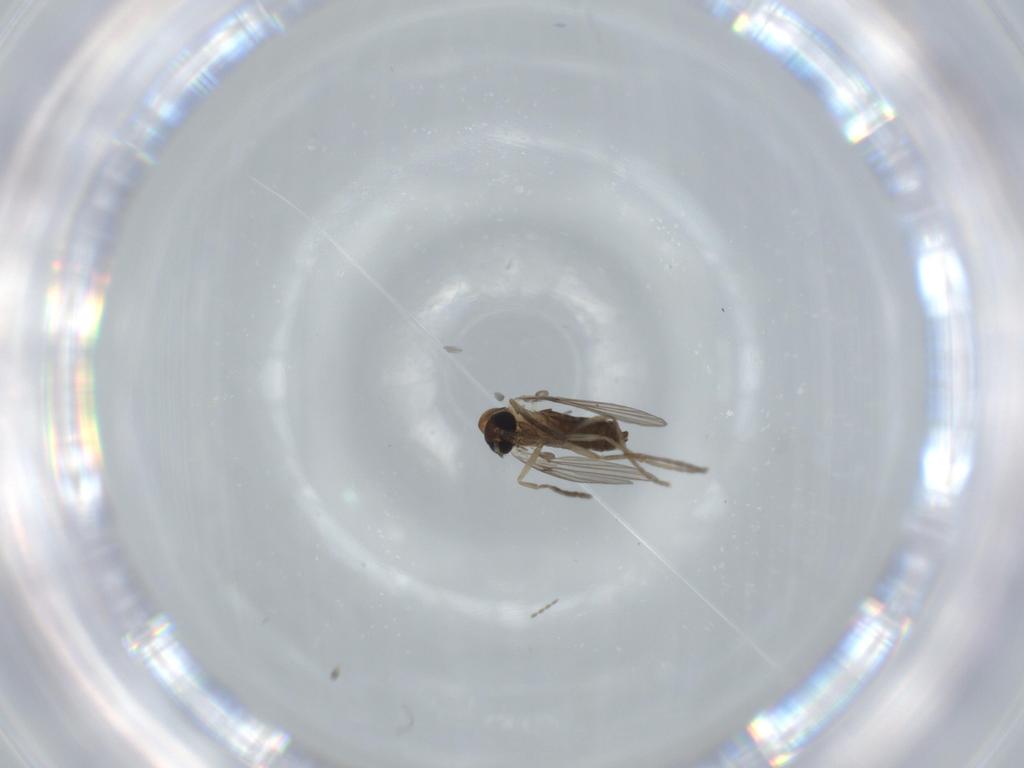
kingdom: Animalia
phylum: Arthropoda
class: Insecta
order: Diptera
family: Psychodidae
